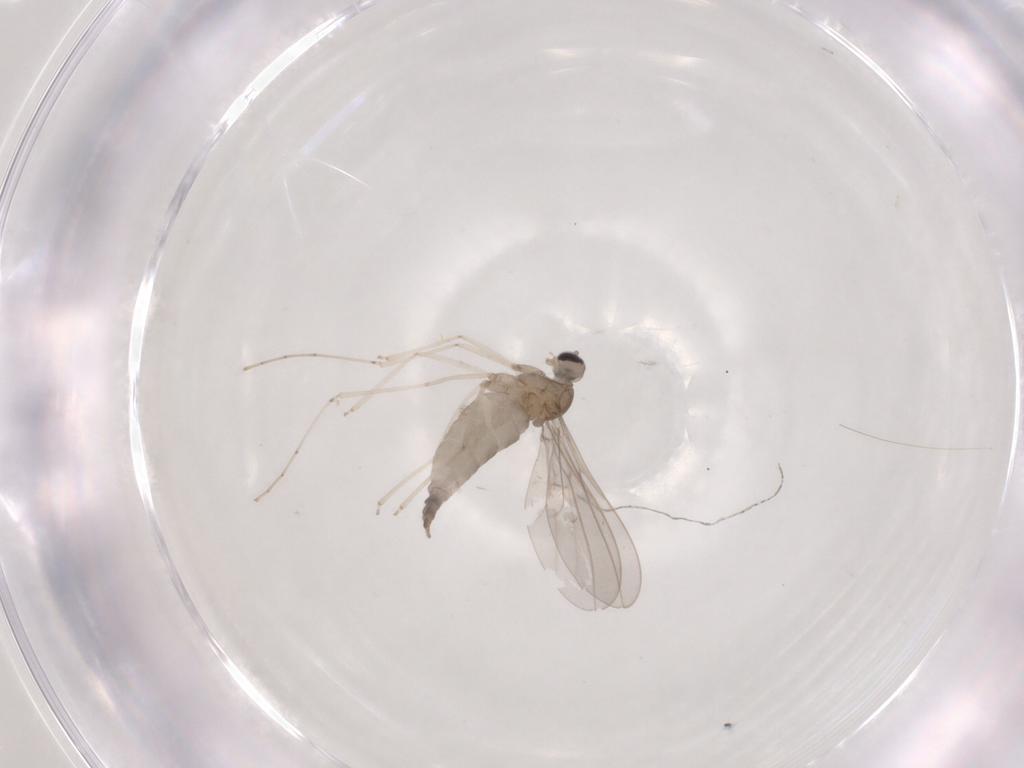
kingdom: Animalia
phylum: Arthropoda
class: Insecta
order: Diptera
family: Cecidomyiidae
